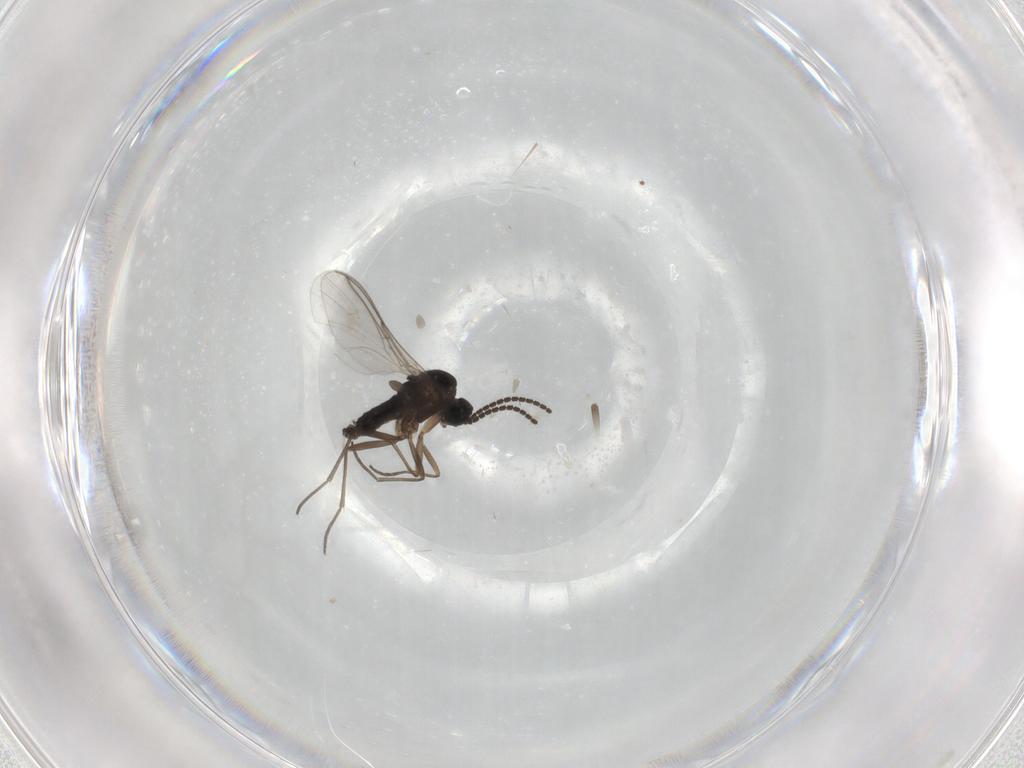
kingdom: Animalia
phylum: Arthropoda
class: Insecta
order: Diptera
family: Sciaridae
